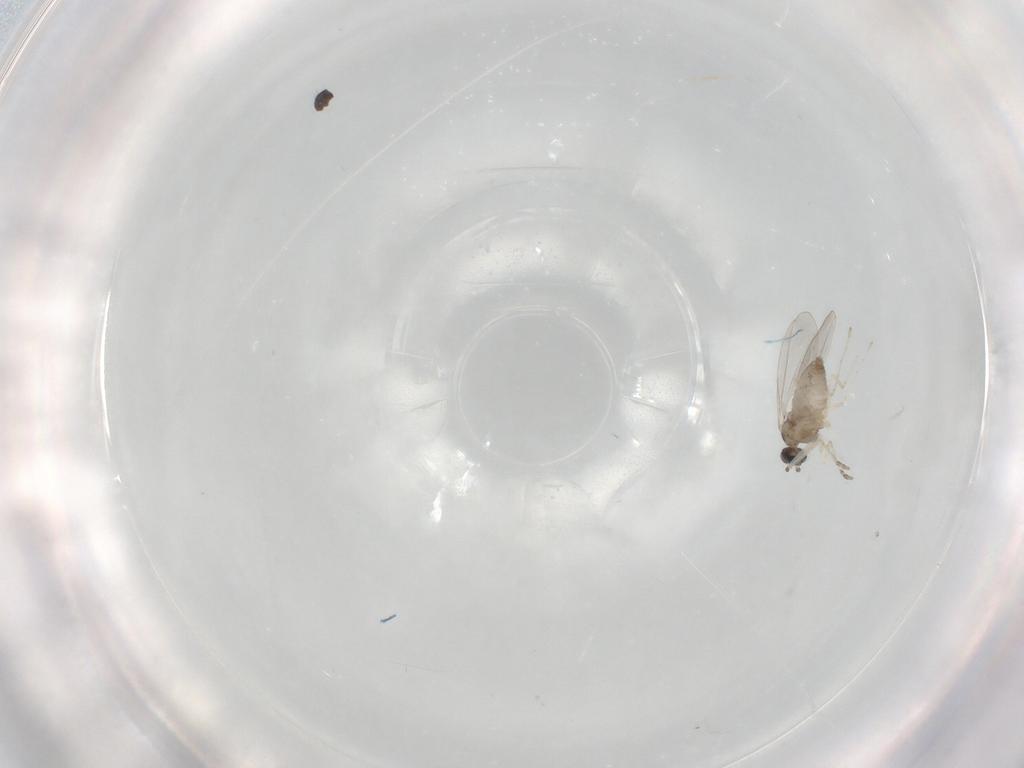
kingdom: Animalia
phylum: Arthropoda
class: Insecta
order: Diptera
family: Cecidomyiidae
